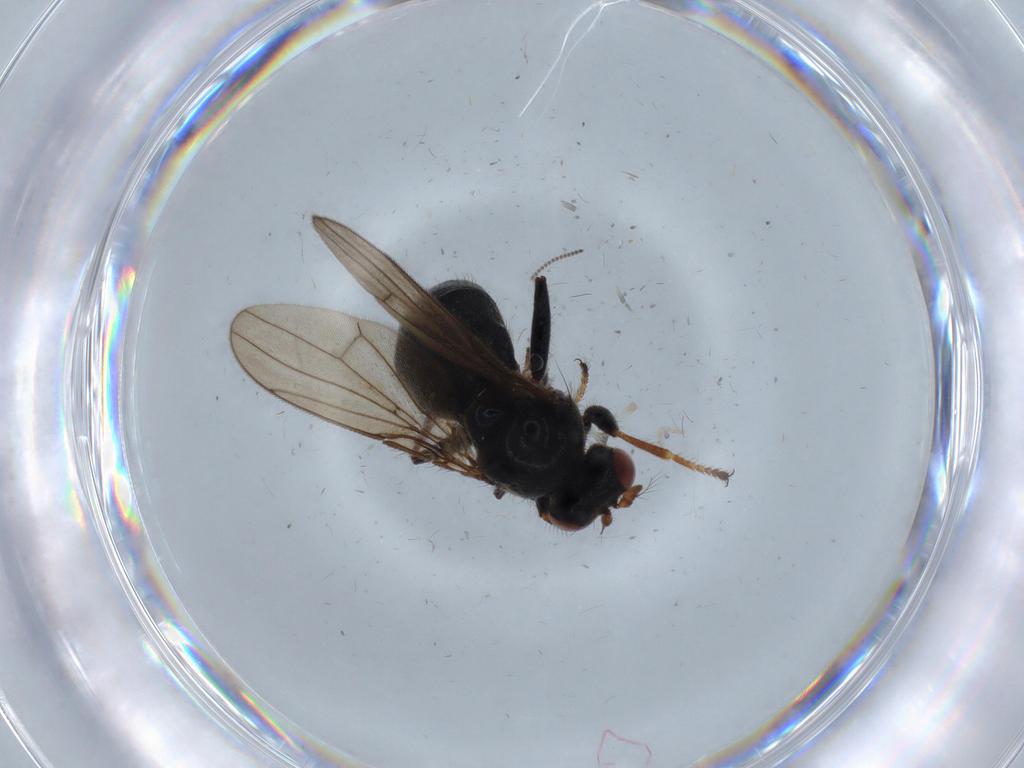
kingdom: Animalia
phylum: Arthropoda
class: Insecta
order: Diptera
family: Ephydridae
